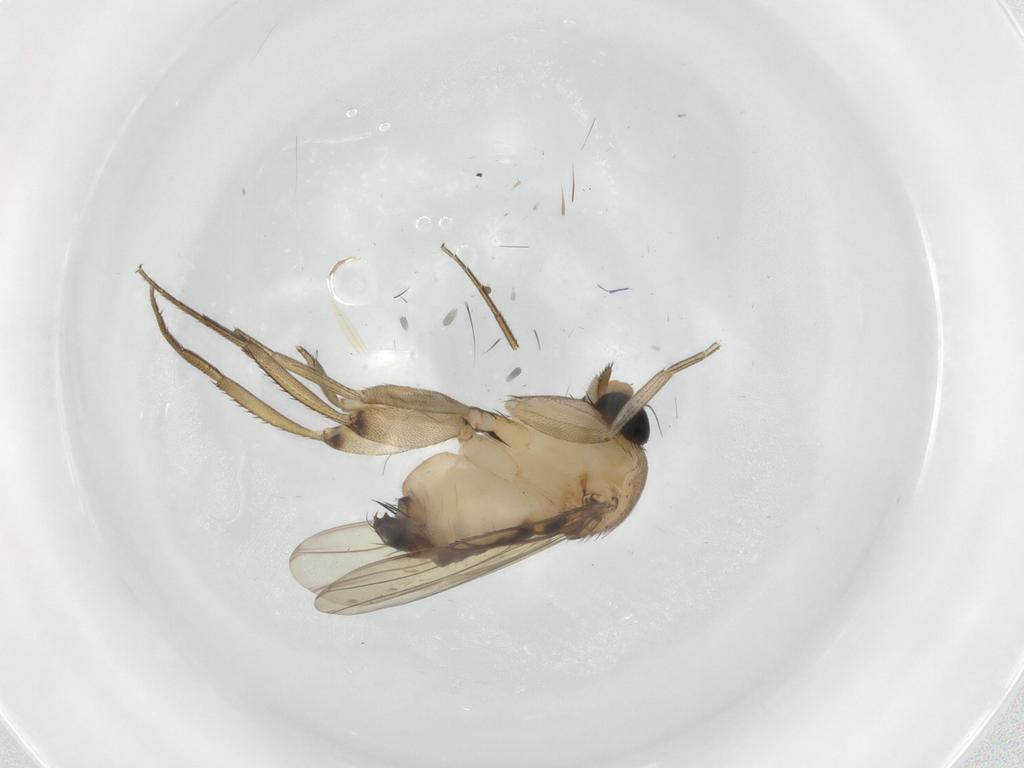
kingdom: Animalia
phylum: Arthropoda
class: Insecta
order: Diptera
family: Phoridae
